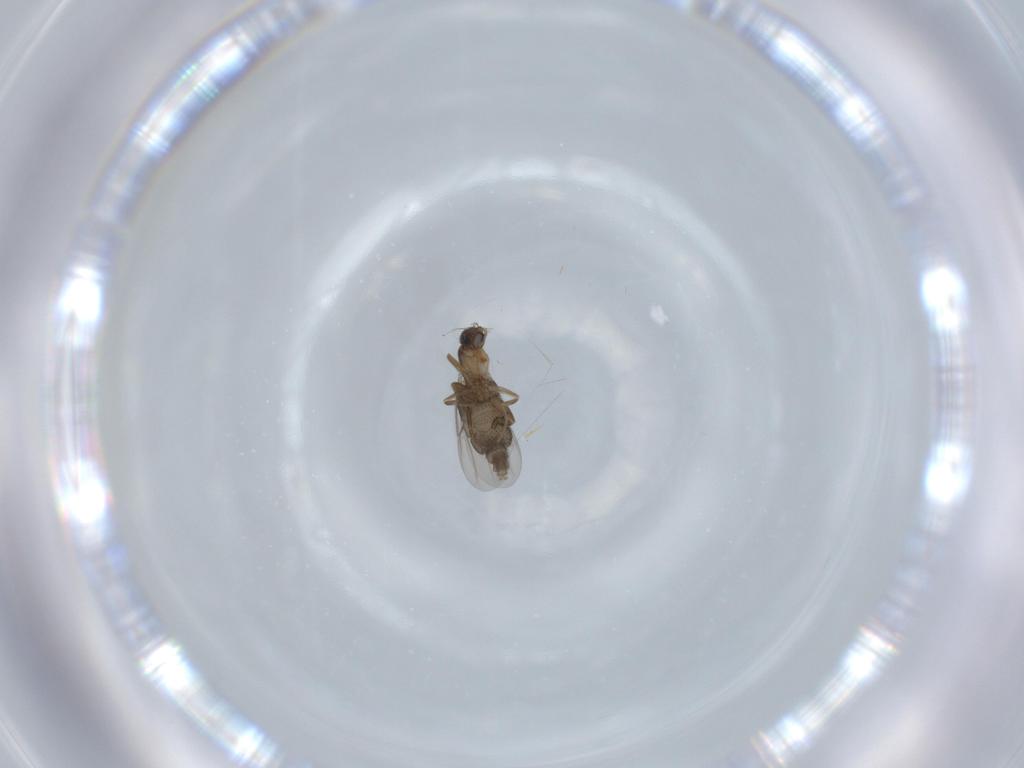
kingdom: Animalia
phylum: Arthropoda
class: Insecta
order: Diptera
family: Phoridae
